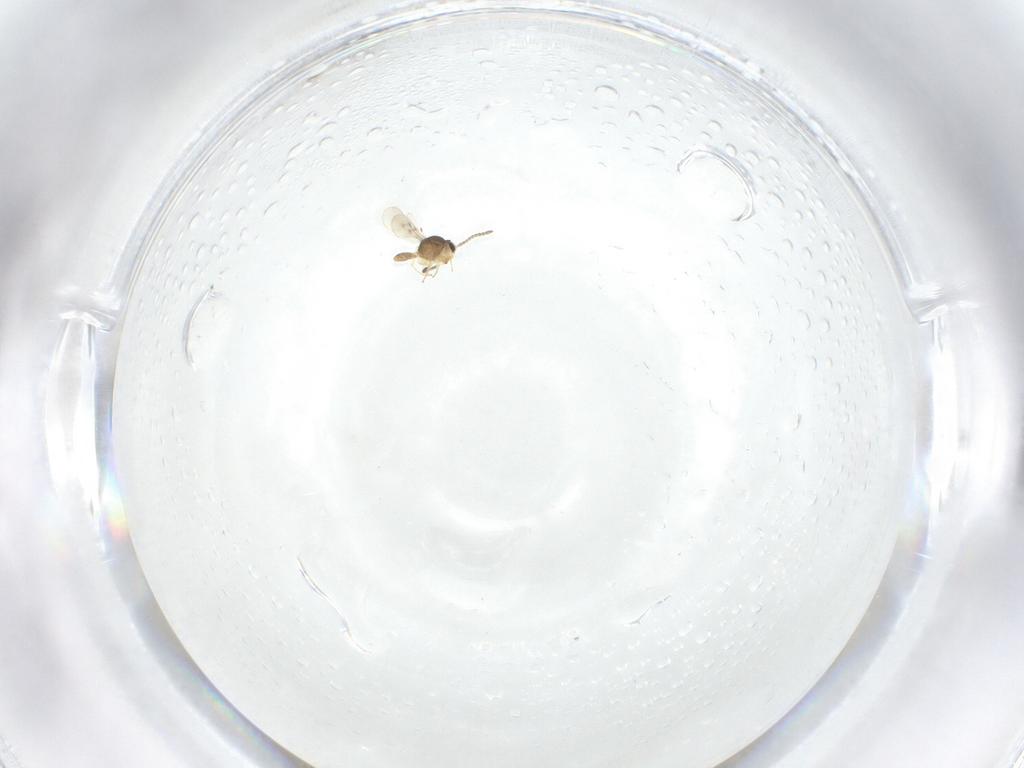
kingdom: Animalia
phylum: Arthropoda
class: Insecta
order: Hymenoptera
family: Scelionidae
